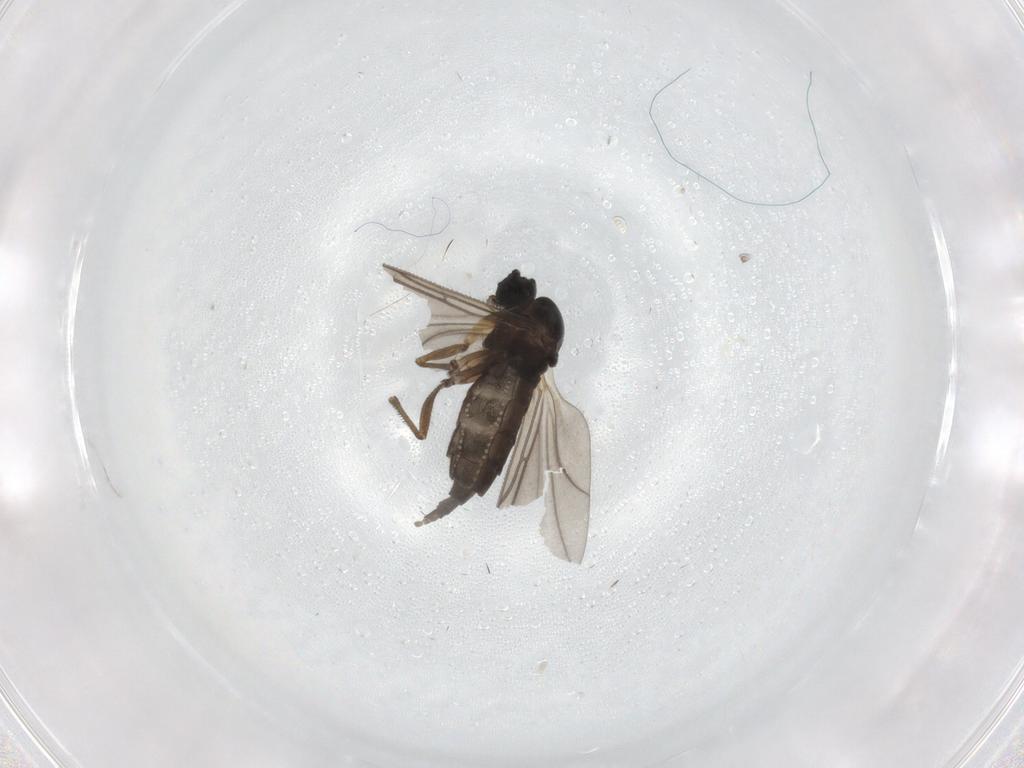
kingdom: Animalia
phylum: Arthropoda
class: Insecta
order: Diptera
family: Sciaridae
